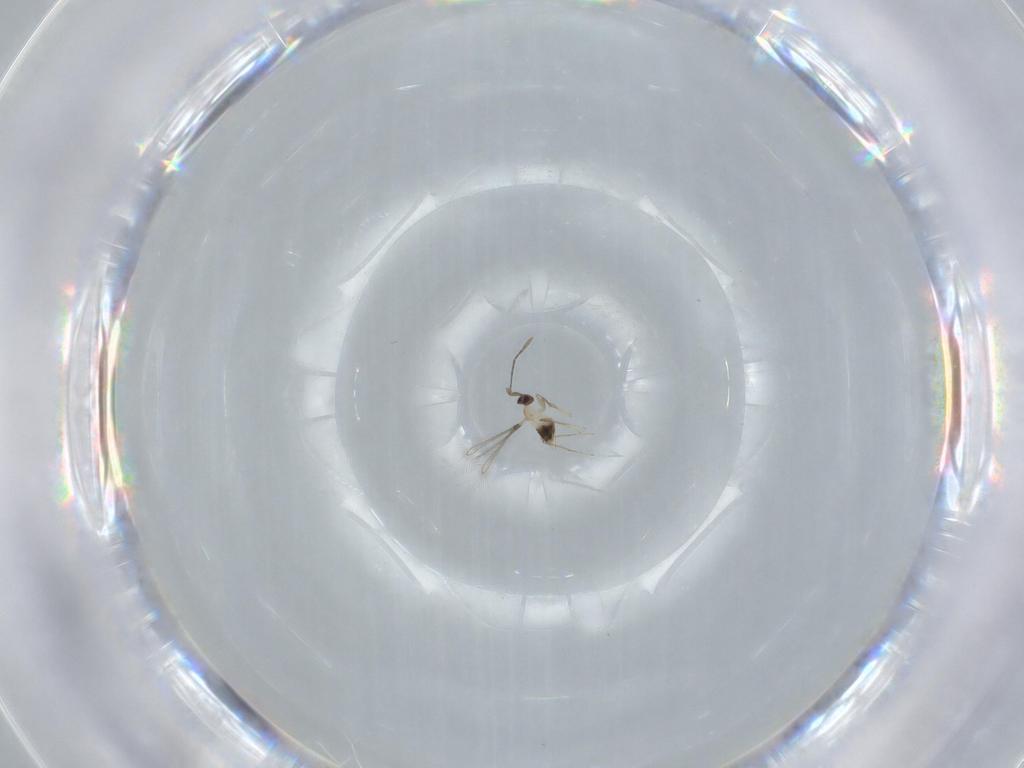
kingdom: Animalia
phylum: Arthropoda
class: Insecta
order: Hymenoptera
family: Mymaridae
